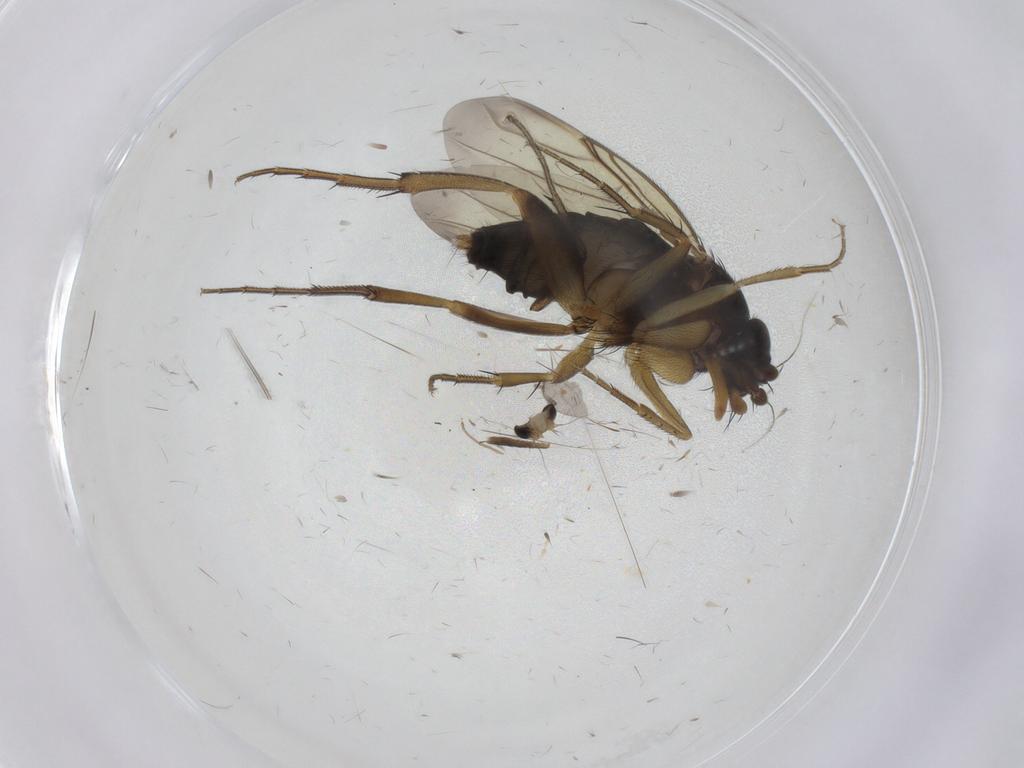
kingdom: Animalia
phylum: Arthropoda
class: Insecta
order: Diptera
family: Phoridae
